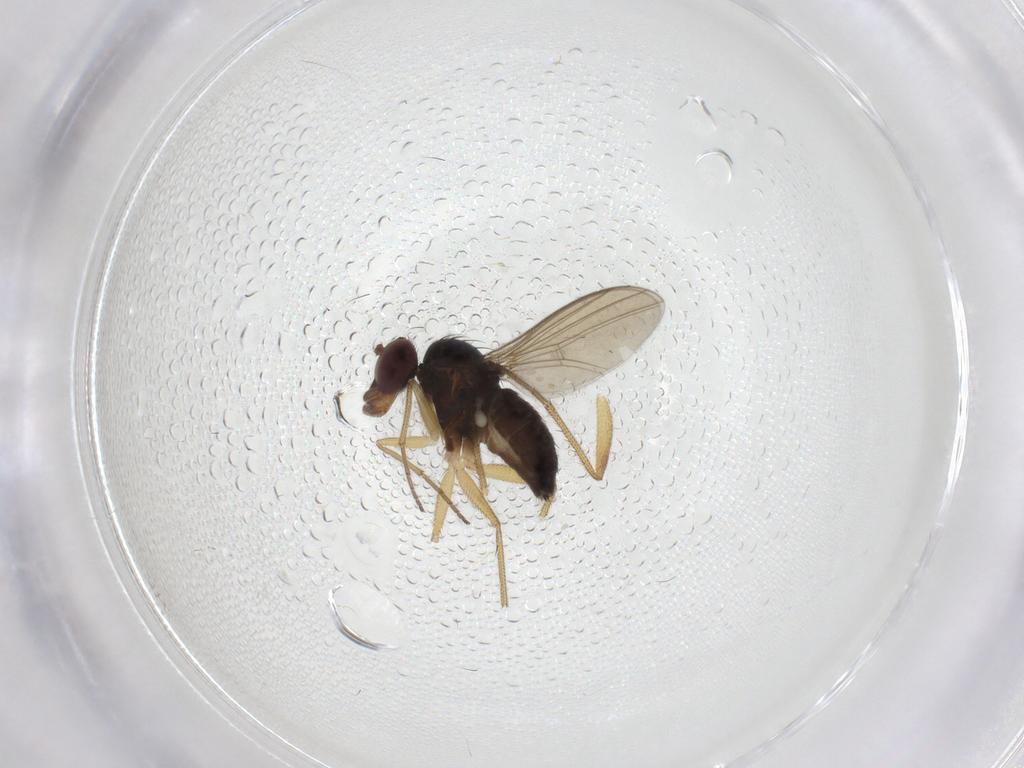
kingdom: Animalia
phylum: Arthropoda
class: Insecta
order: Diptera
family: Dolichopodidae
